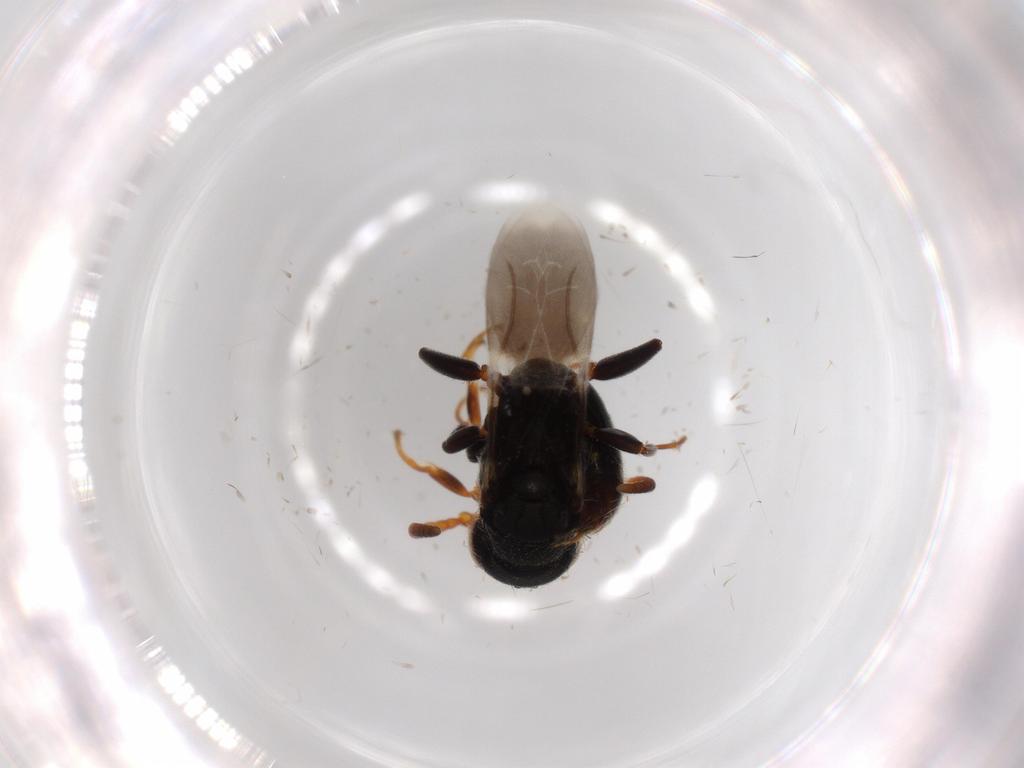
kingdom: Animalia
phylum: Arthropoda
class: Insecta
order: Hymenoptera
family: Bethylidae
